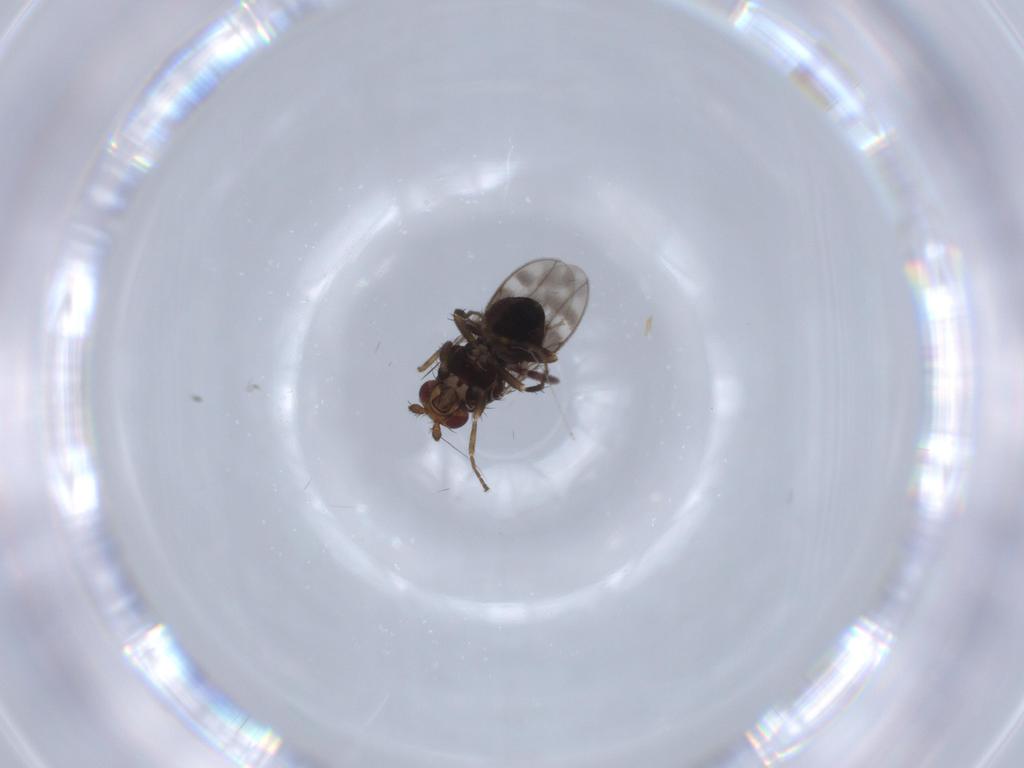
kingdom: Animalia
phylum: Arthropoda
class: Insecta
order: Diptera
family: Sphaeroceridae
